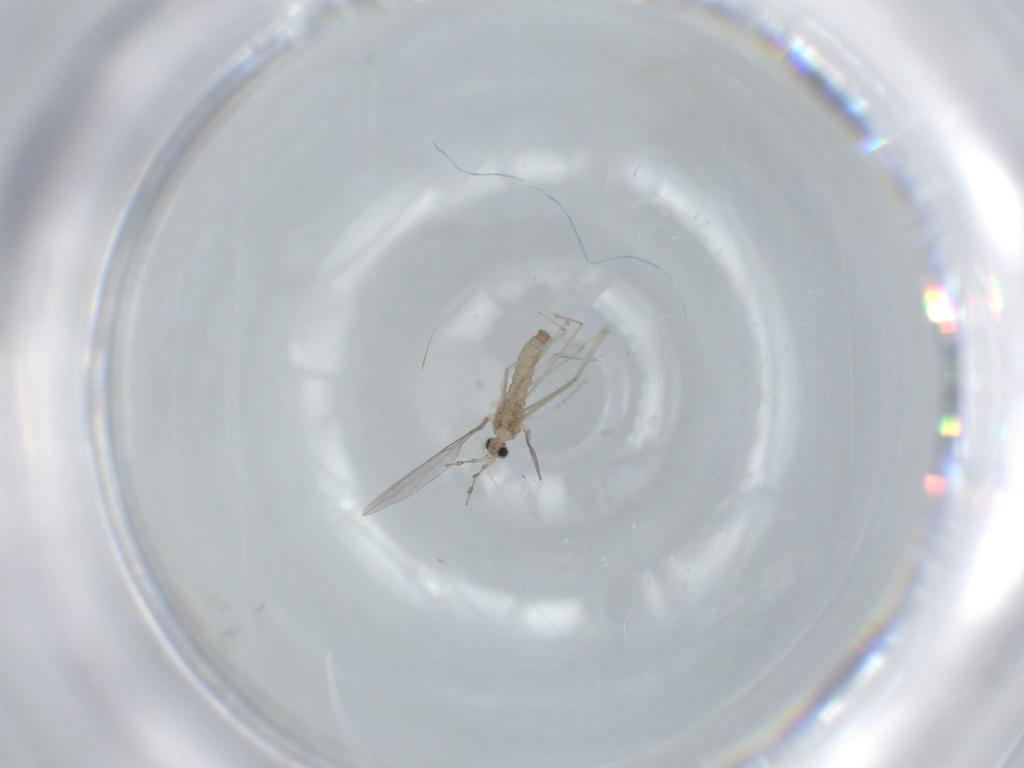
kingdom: Animalia
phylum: Arthropoda
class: Insecta
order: Diptera
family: Cecidomyiidae
